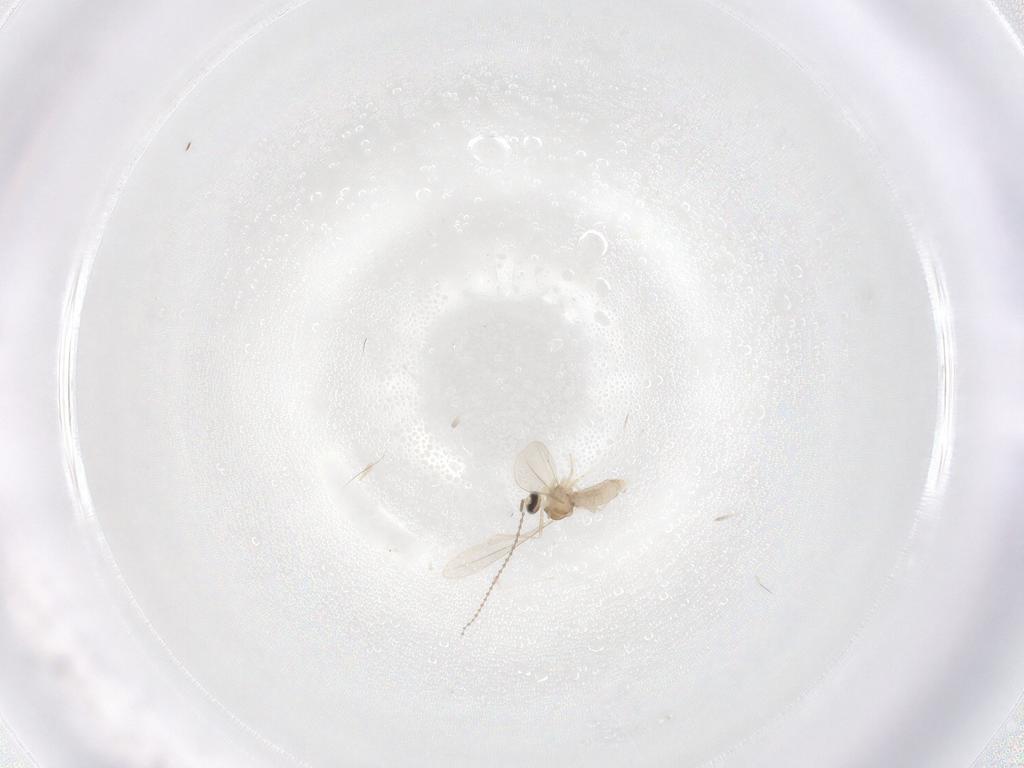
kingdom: Animalia
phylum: Arthropoda
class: Insecta
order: Diptera
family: Cecidomyiidae
